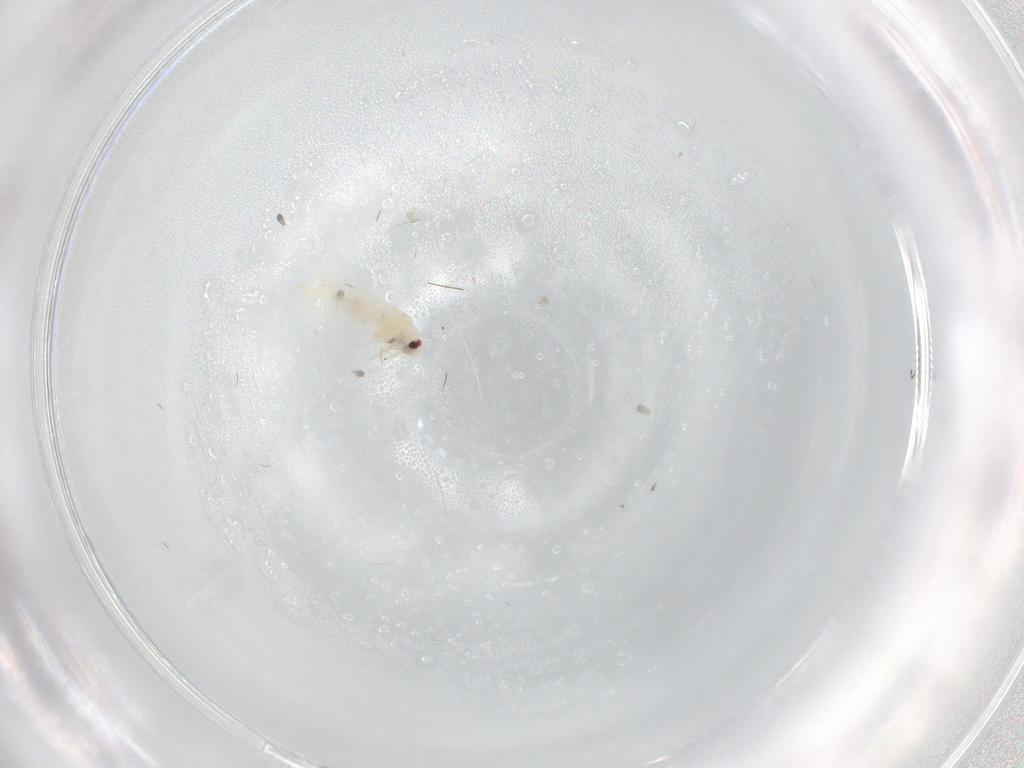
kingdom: Animalia
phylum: Arthropoda
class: Insecta
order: Hemiptera
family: Aleyrodidae
